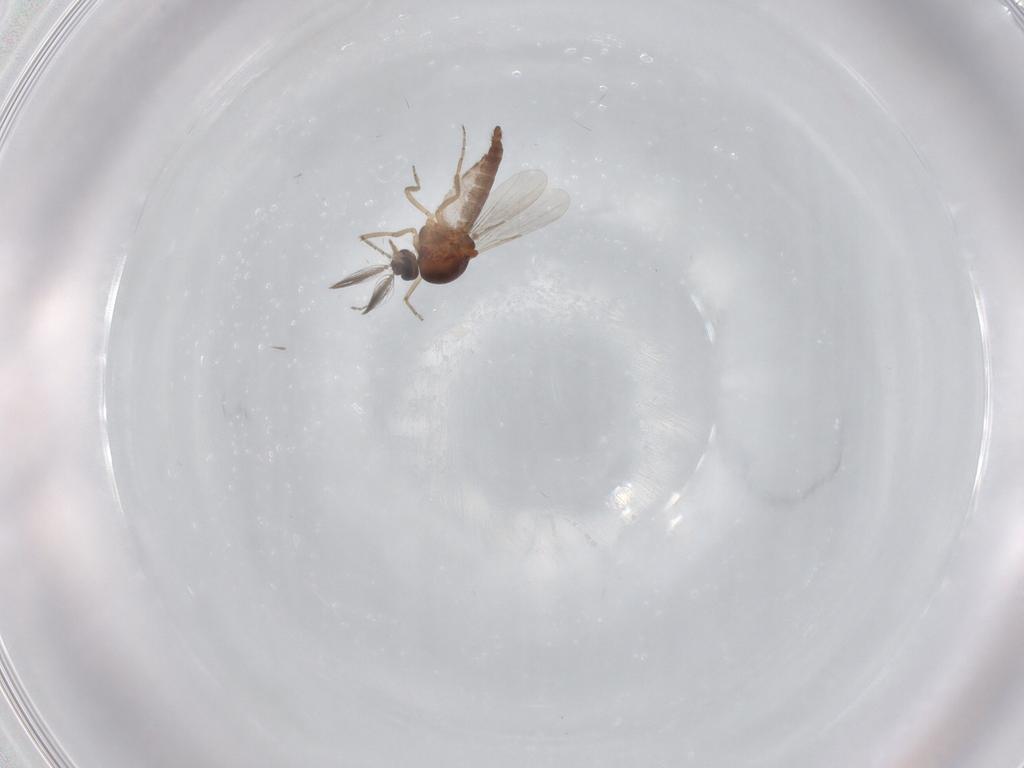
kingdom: Animalia
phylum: Arthropoda
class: Insecta
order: Diptera
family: Ceratopogonidae
